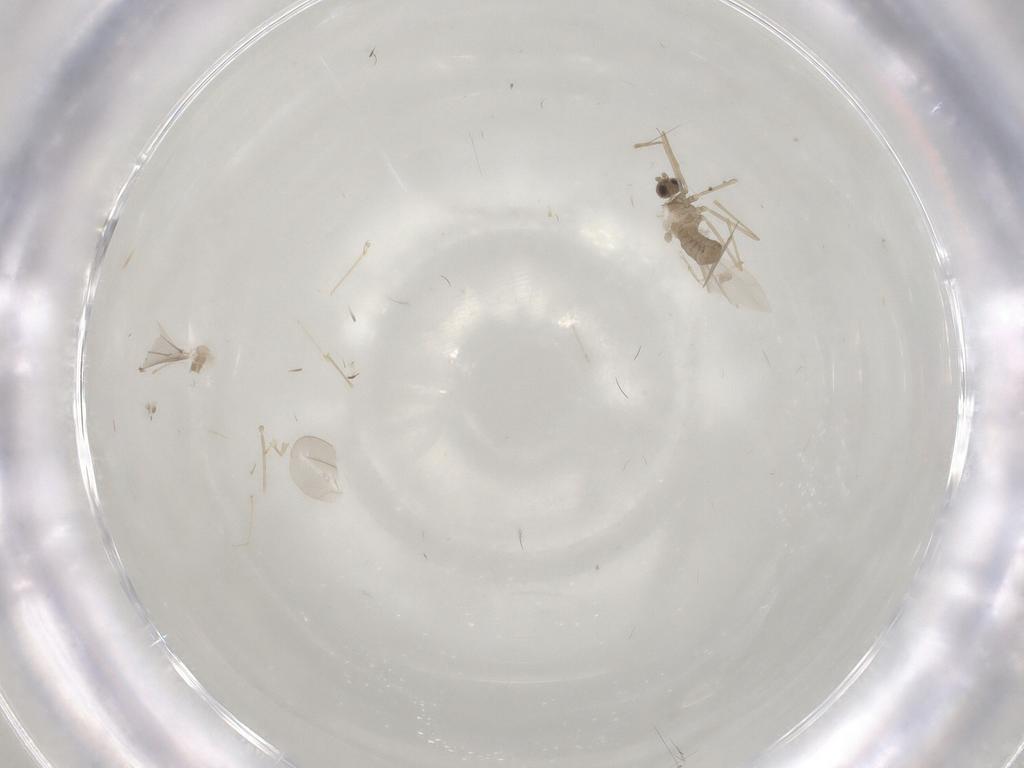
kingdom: Animalia
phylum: Arthropoda
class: Insecta
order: Diptera
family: Cecidomyiidae
